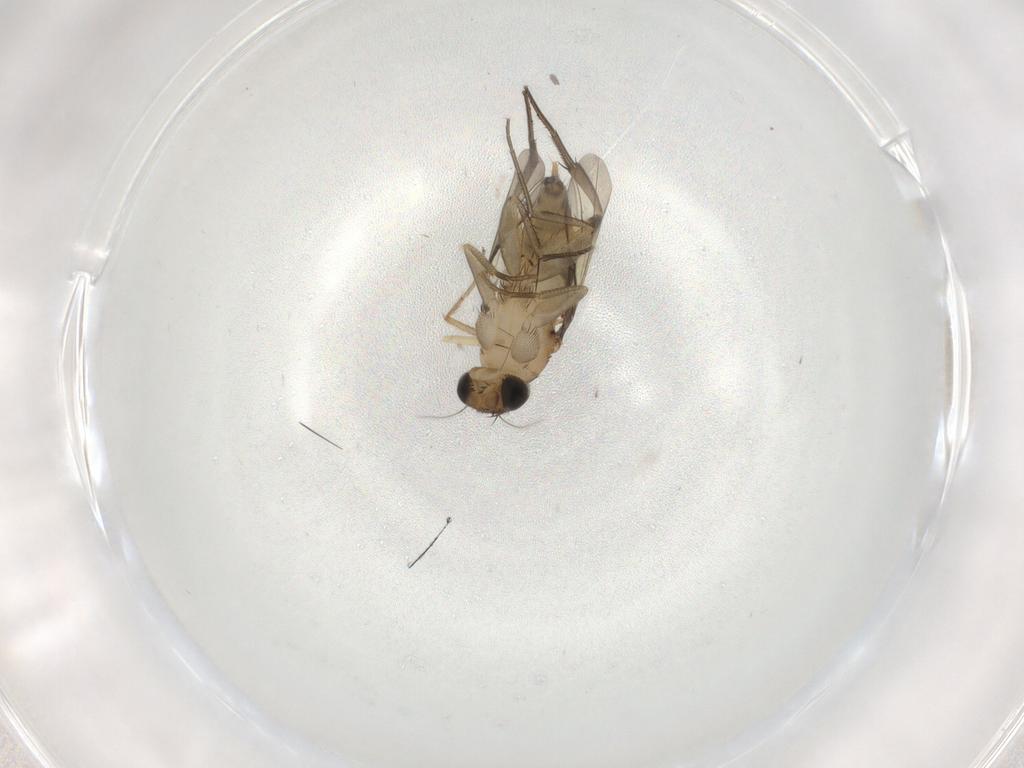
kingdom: Animalia
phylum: Arthropoda
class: Insecta
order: Diptera
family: Phoridae
